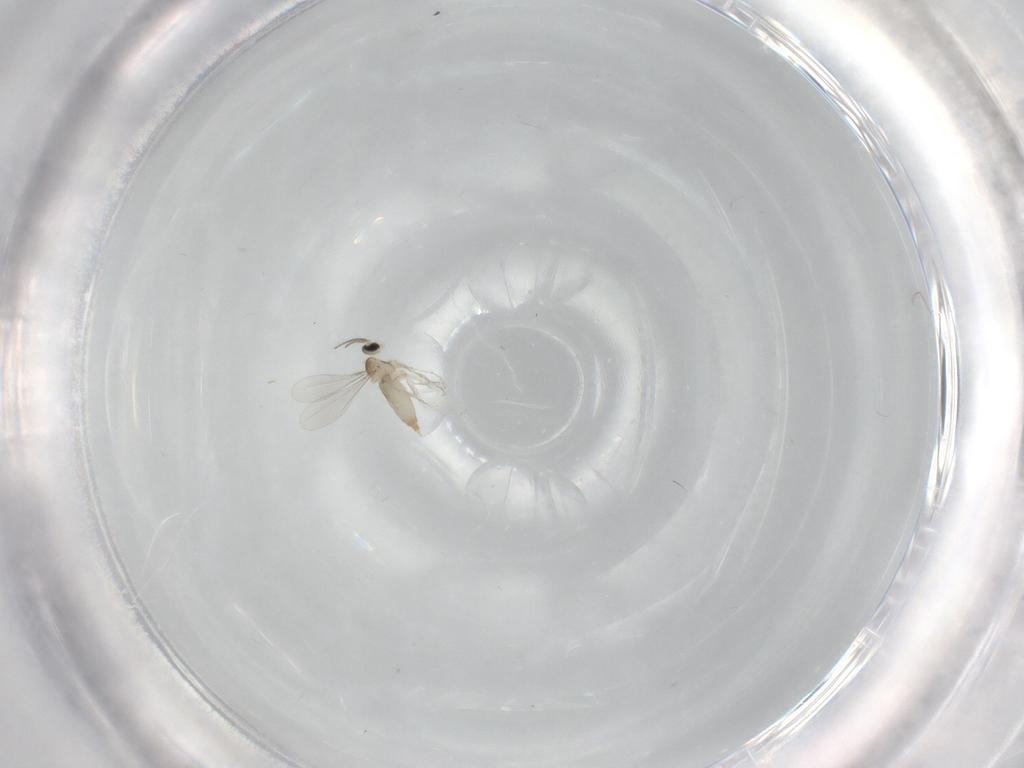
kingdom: Animalia
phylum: Arthropoda
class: Insecta
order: Diptera
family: Cecidomyiidae
